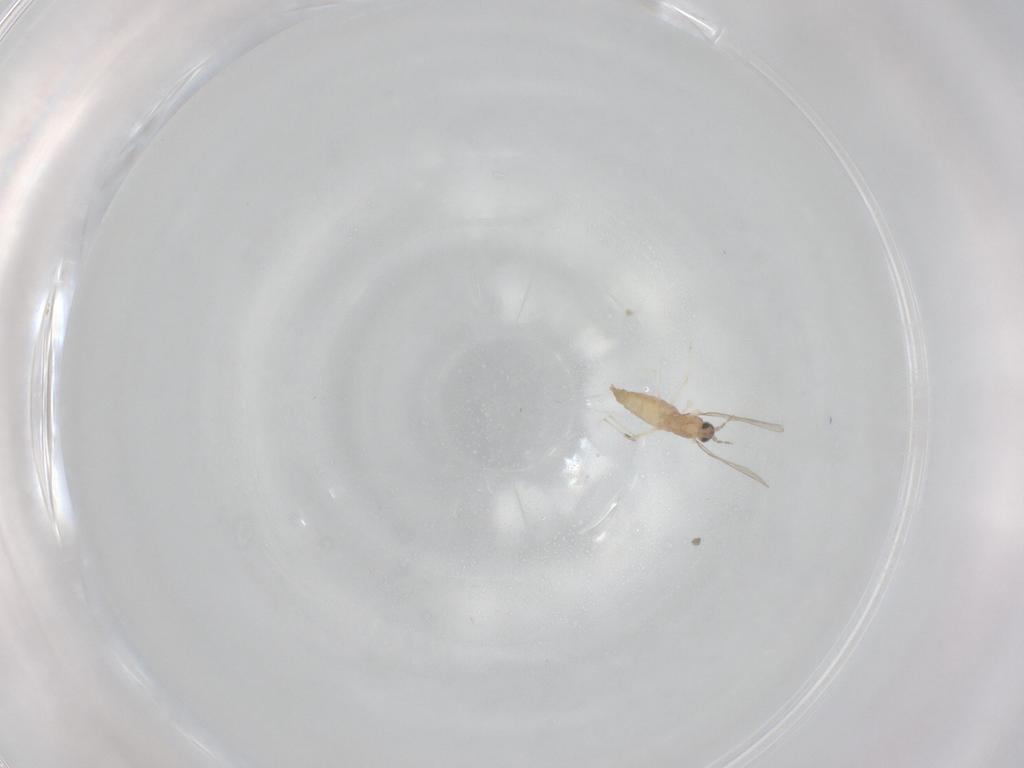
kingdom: Animalia
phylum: Arthropoda
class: Insecta
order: Diptera
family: Cecidomyiidae
